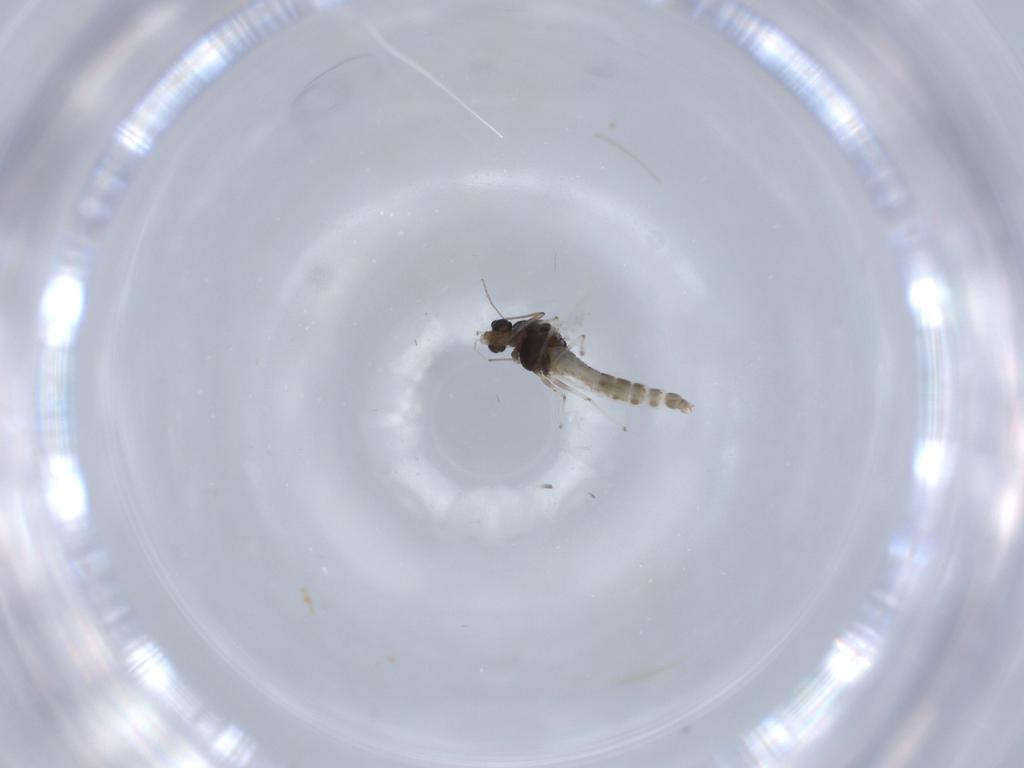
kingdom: Animalia
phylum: Arthropoda
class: Insecta
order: Diptera
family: Chironomidae
